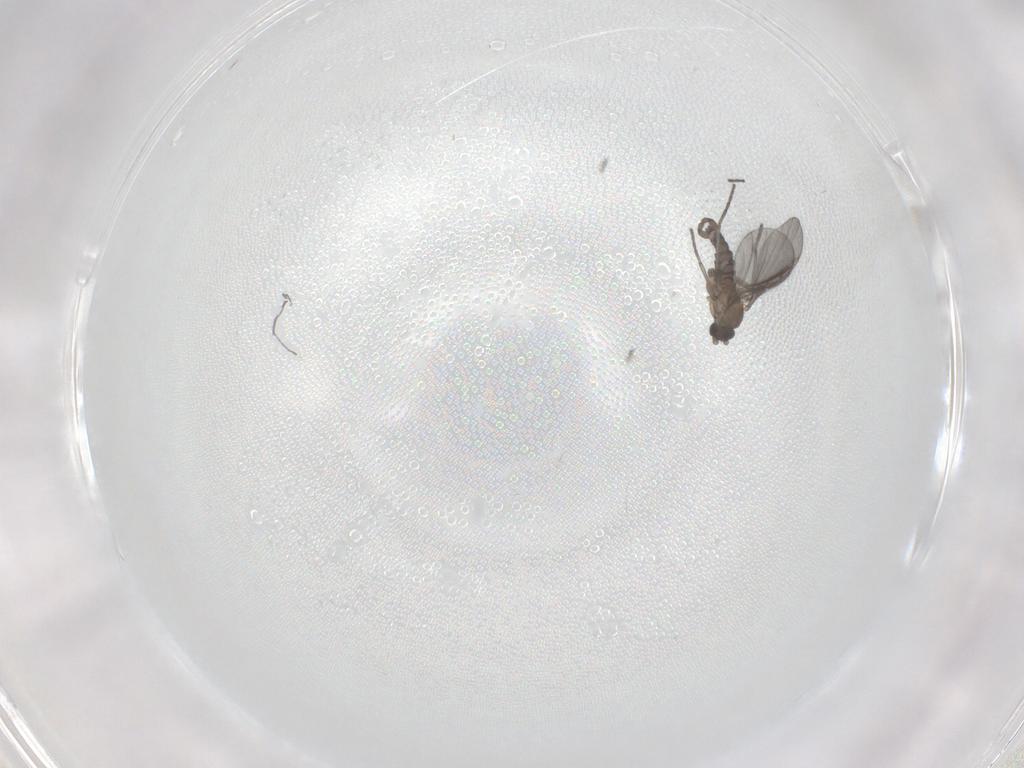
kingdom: Animalia
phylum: Arthropoda
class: Insecta
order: Diptera
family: Sciaridae
